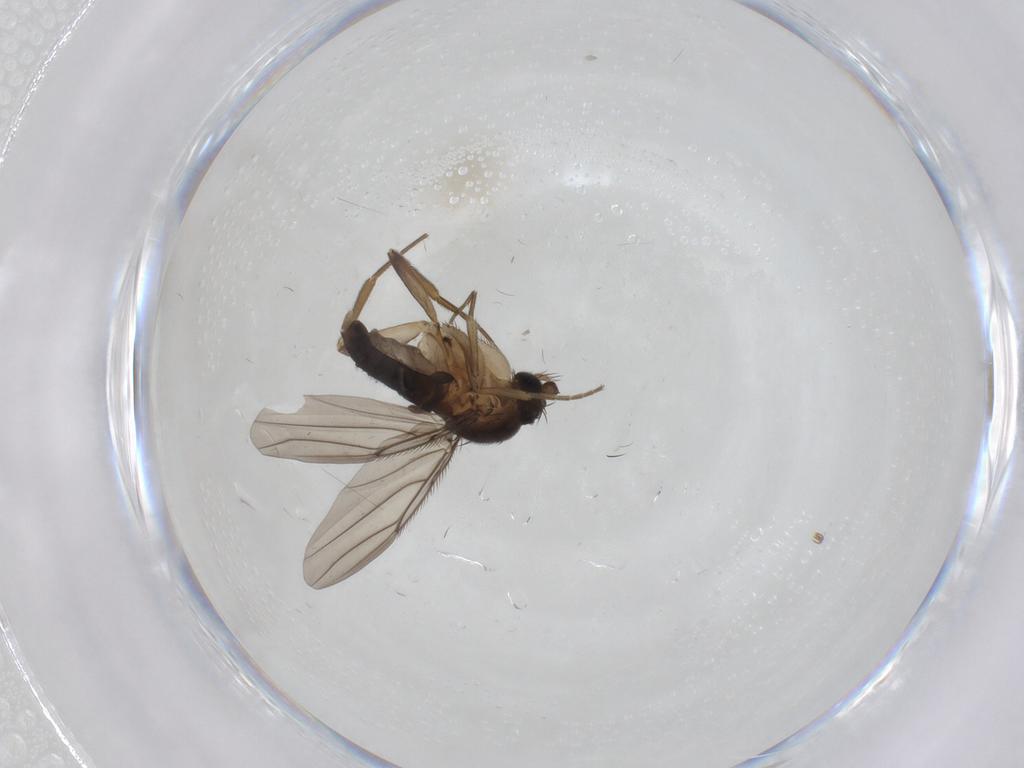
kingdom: Animalia
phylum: Arthropoda
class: Insecta
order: Diptera
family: Phoridae
